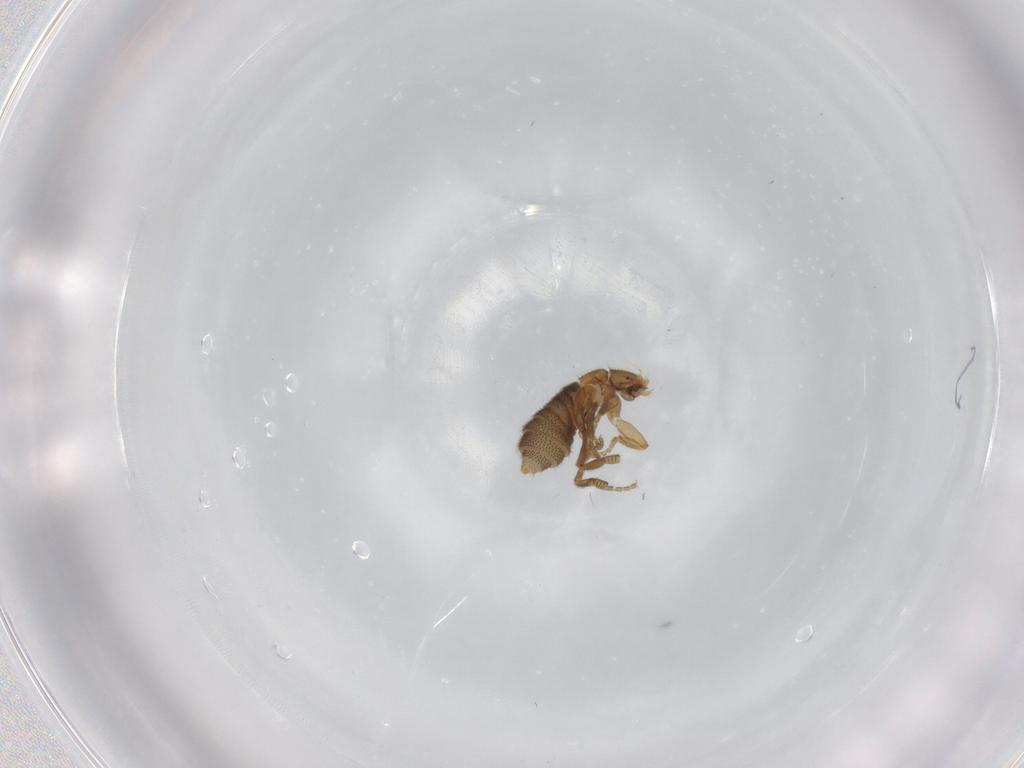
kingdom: Animalia
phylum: Arthropoda
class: Insecta
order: Diptera
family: Phoridae
